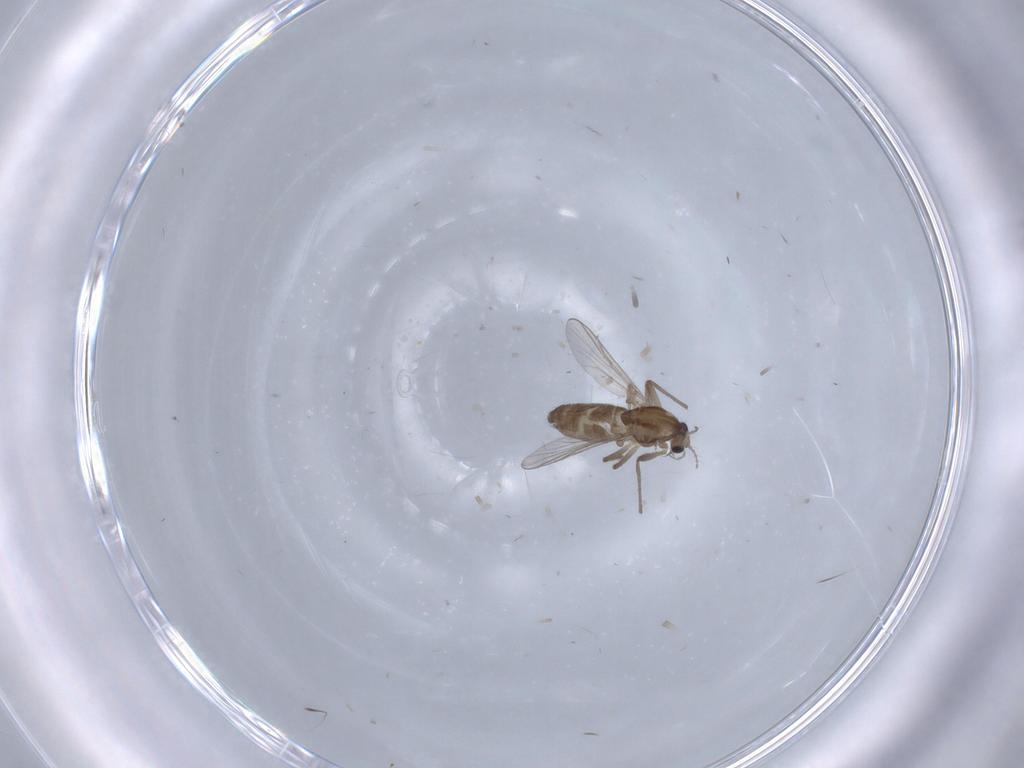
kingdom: Animalia
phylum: Arthropoda
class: Insecta
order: Diptera
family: Chironomidae
